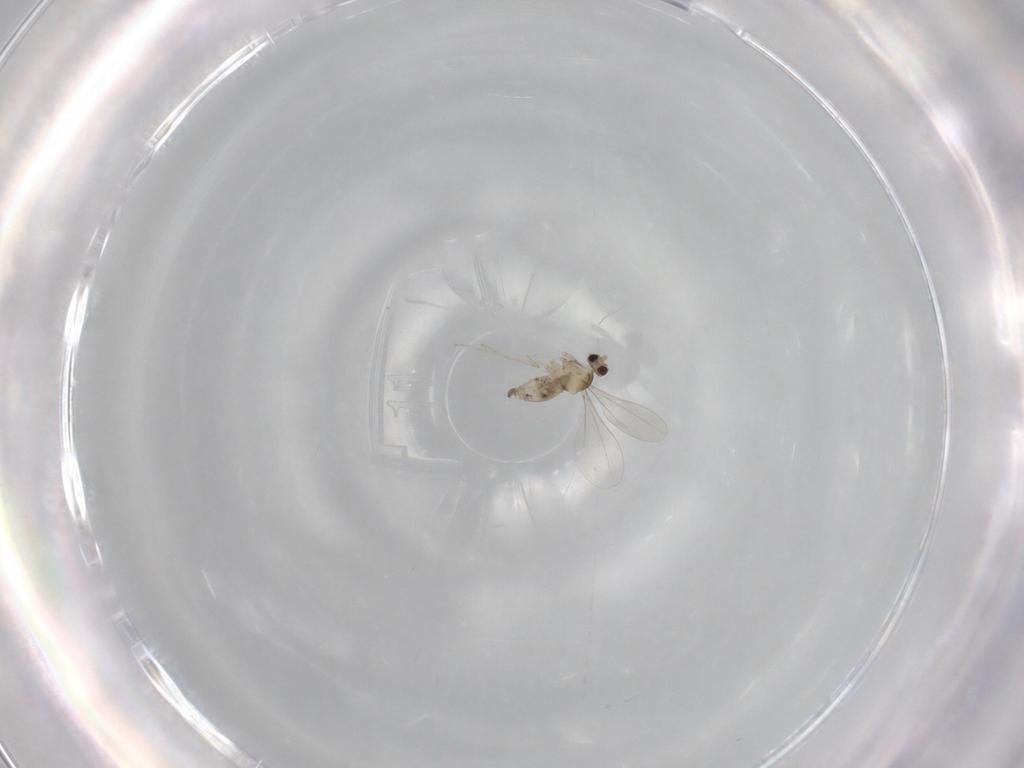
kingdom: Animalia
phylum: Arthropoda
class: Insecta
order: Diptera
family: Cecidomyiidae
